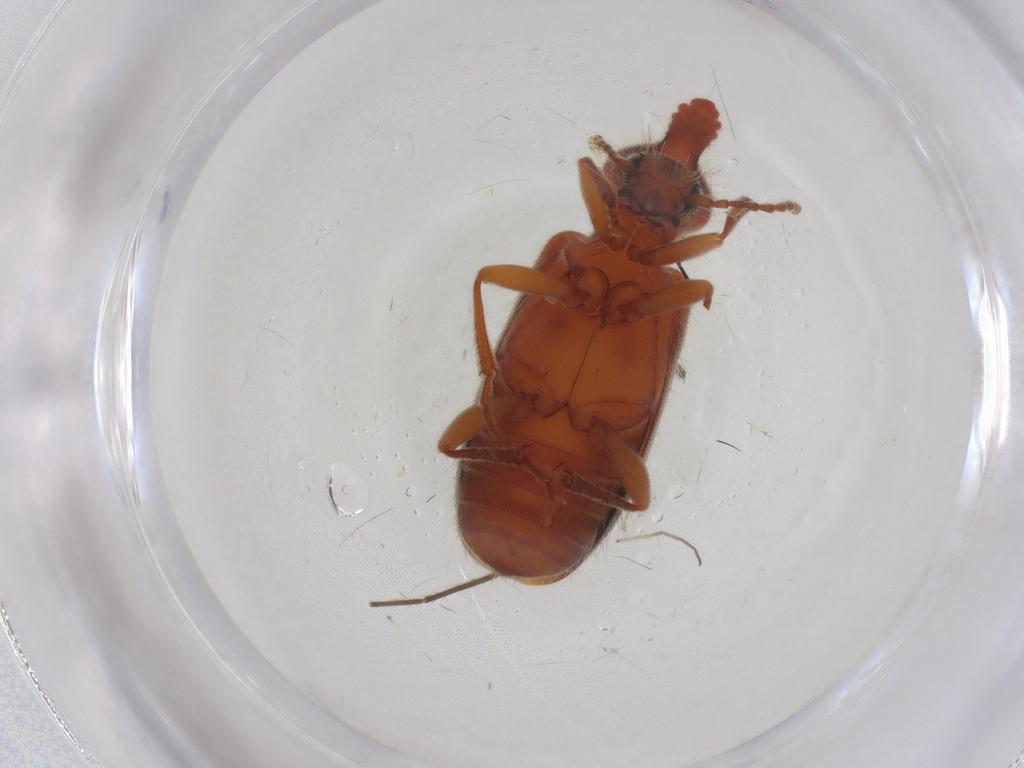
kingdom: Animalia
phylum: Arthropoda
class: Insecta
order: Coleoptera
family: Anthicidae
